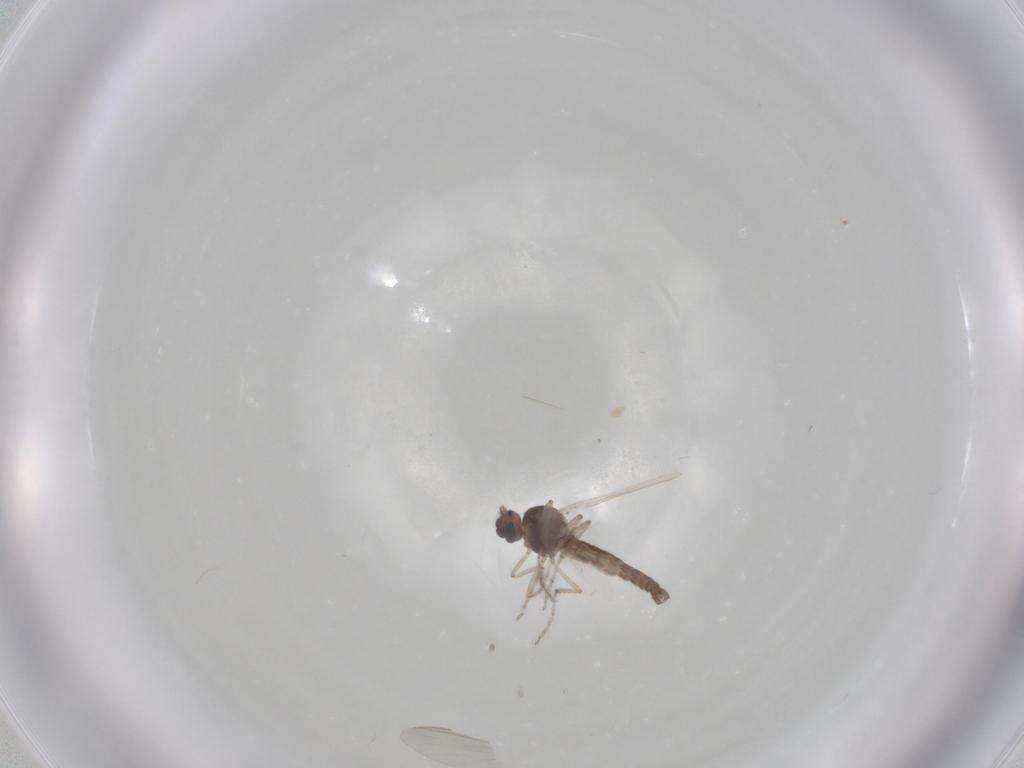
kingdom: Animalia
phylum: Arthropoda
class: Insecta
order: Diptera
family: Ceratopogonidae
